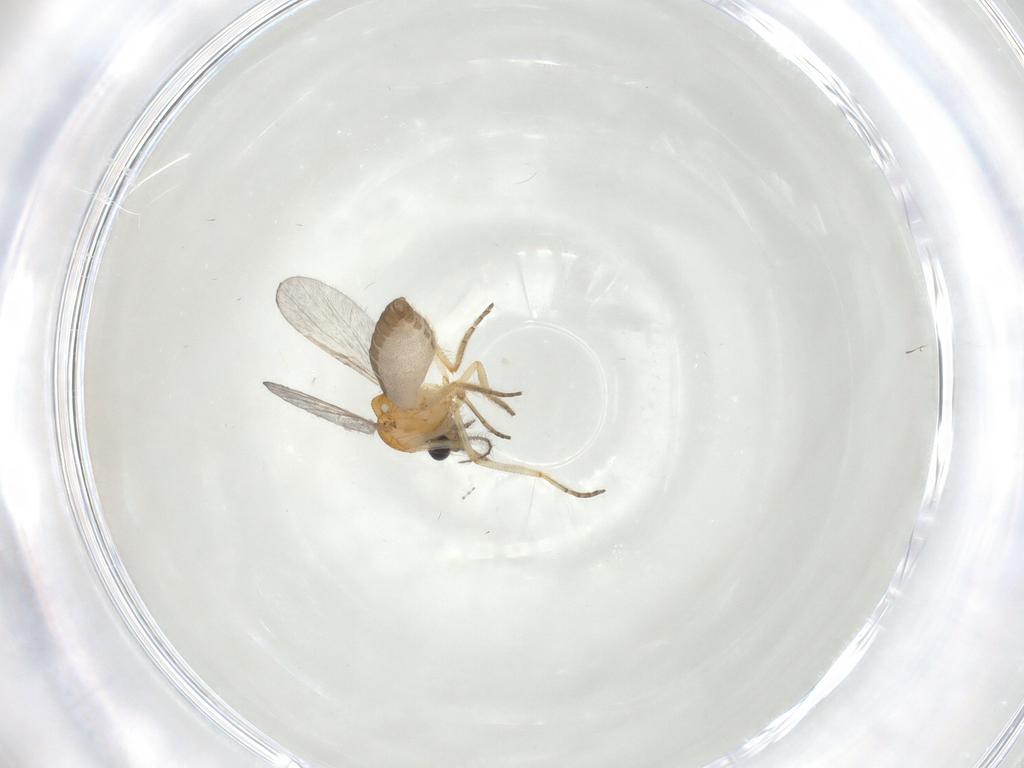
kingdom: Animalia
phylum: Arthropoda
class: Insecta
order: Diptera
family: Ceratopogonidae
